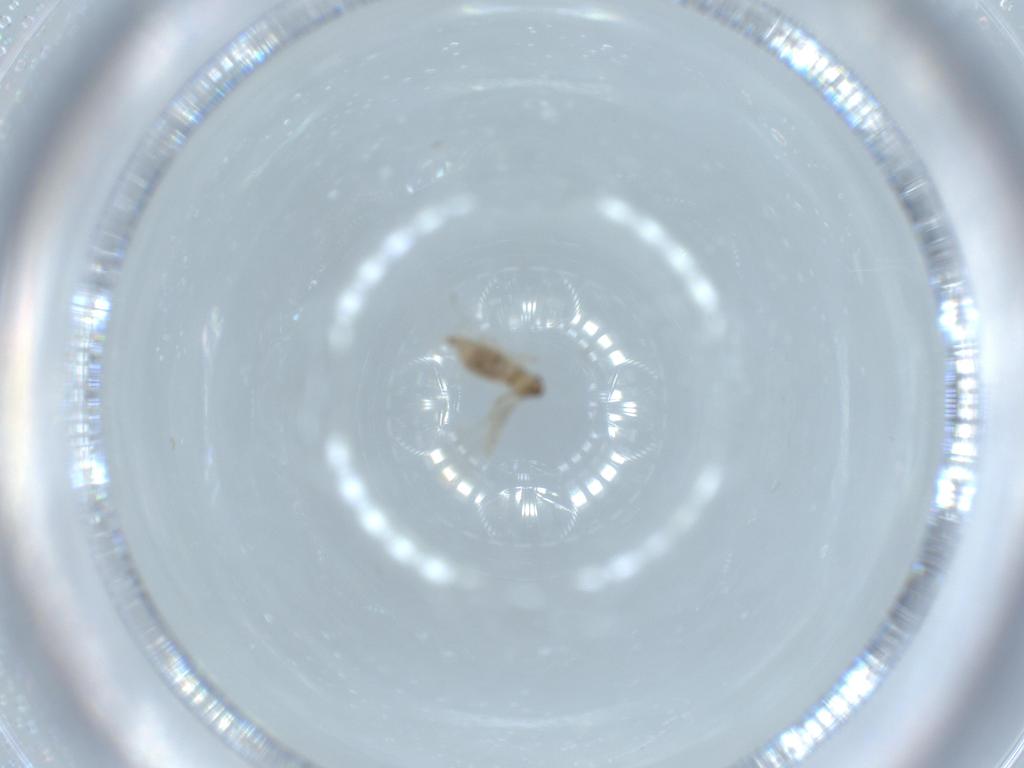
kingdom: Animalia
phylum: Arthropoda
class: Insecta
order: Diptera
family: Cecidomyiidae
